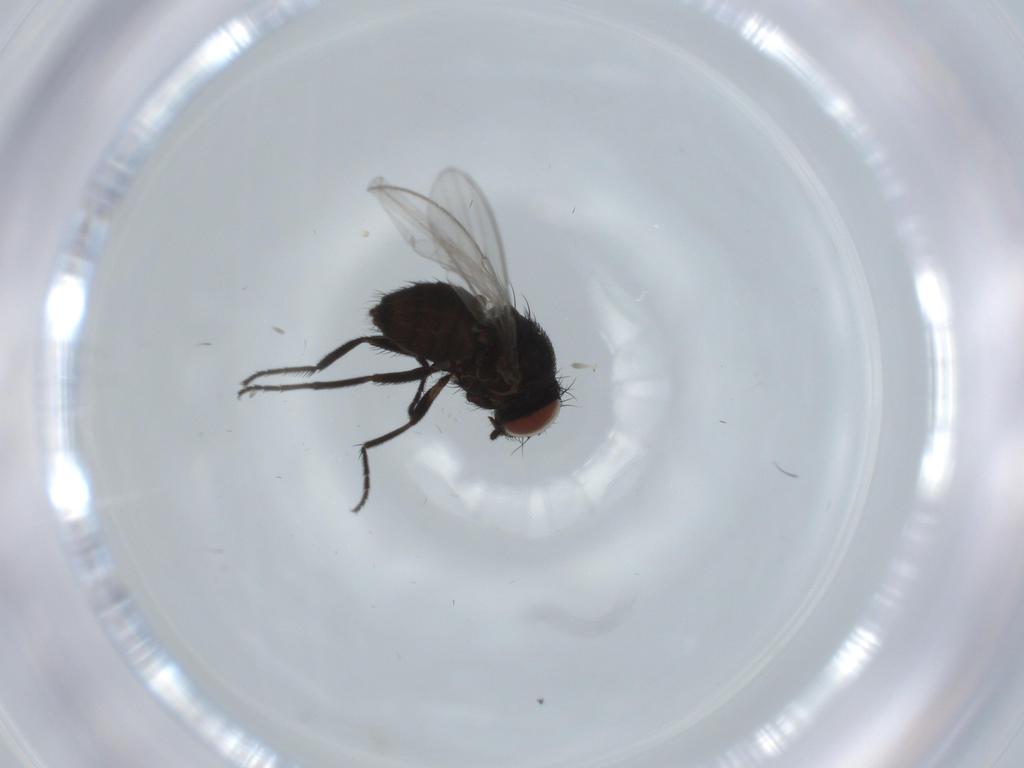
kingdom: Animalia
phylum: Arthropoda
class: Insecta
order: Diptera
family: Milichiidae
